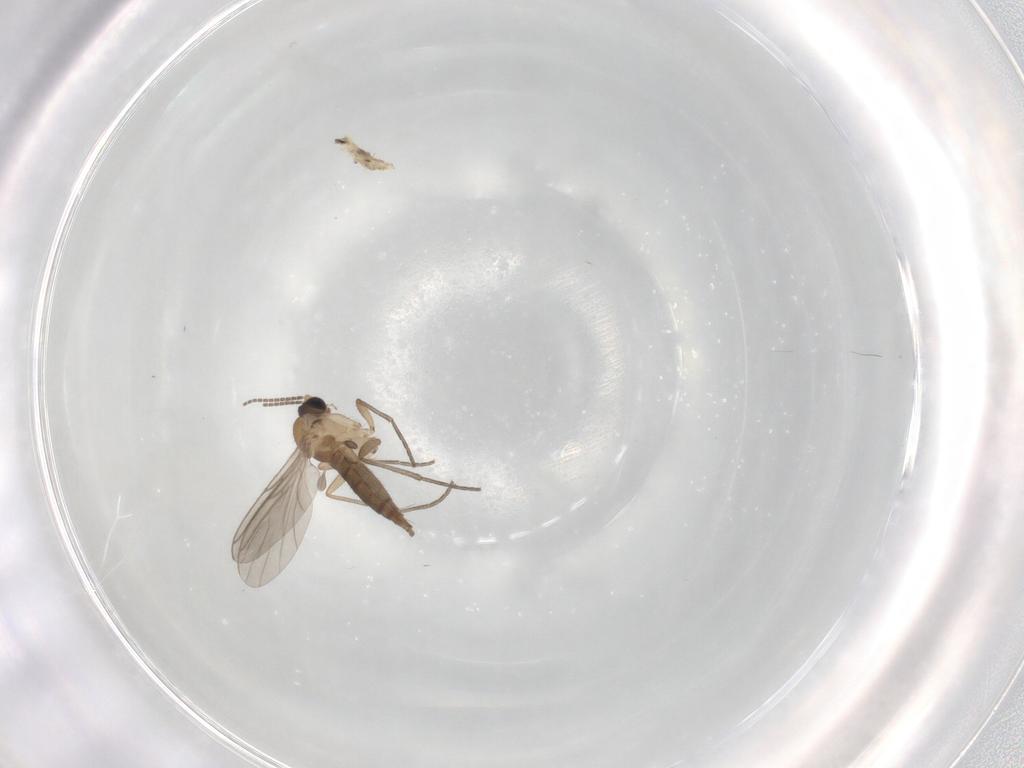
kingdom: Animalia
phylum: Arthropoda
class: Insecta
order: Diptera
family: Sciaridae
